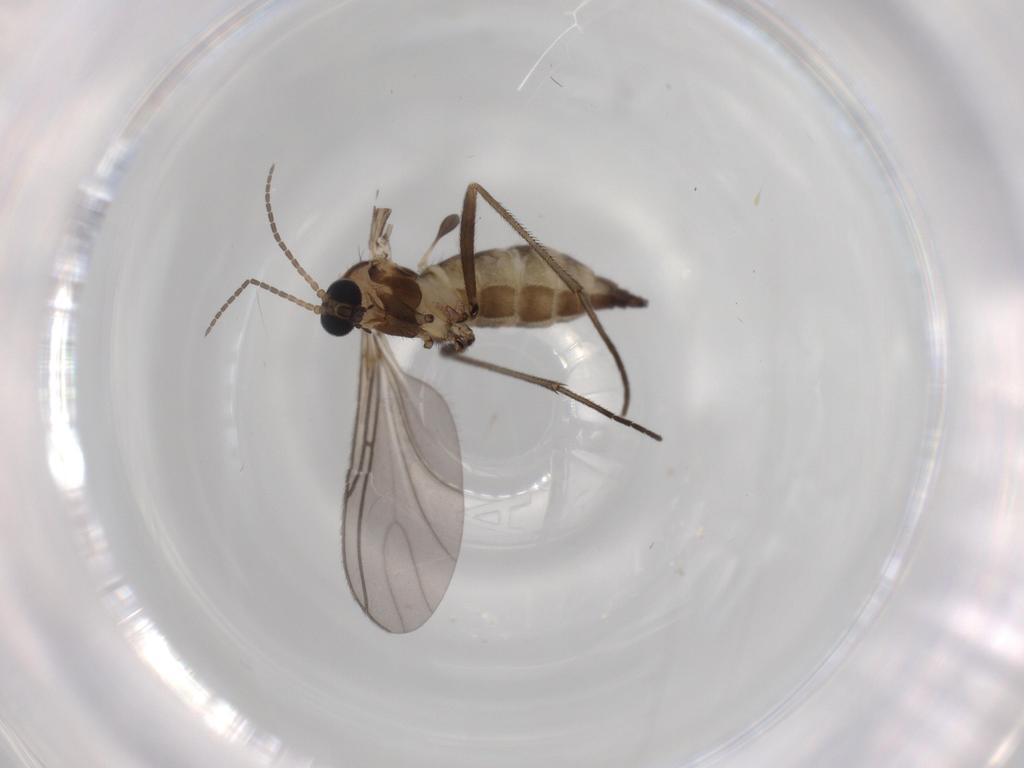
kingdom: Animalia
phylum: Arthropoda
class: Insecta
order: Diptera
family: Sciaridae
